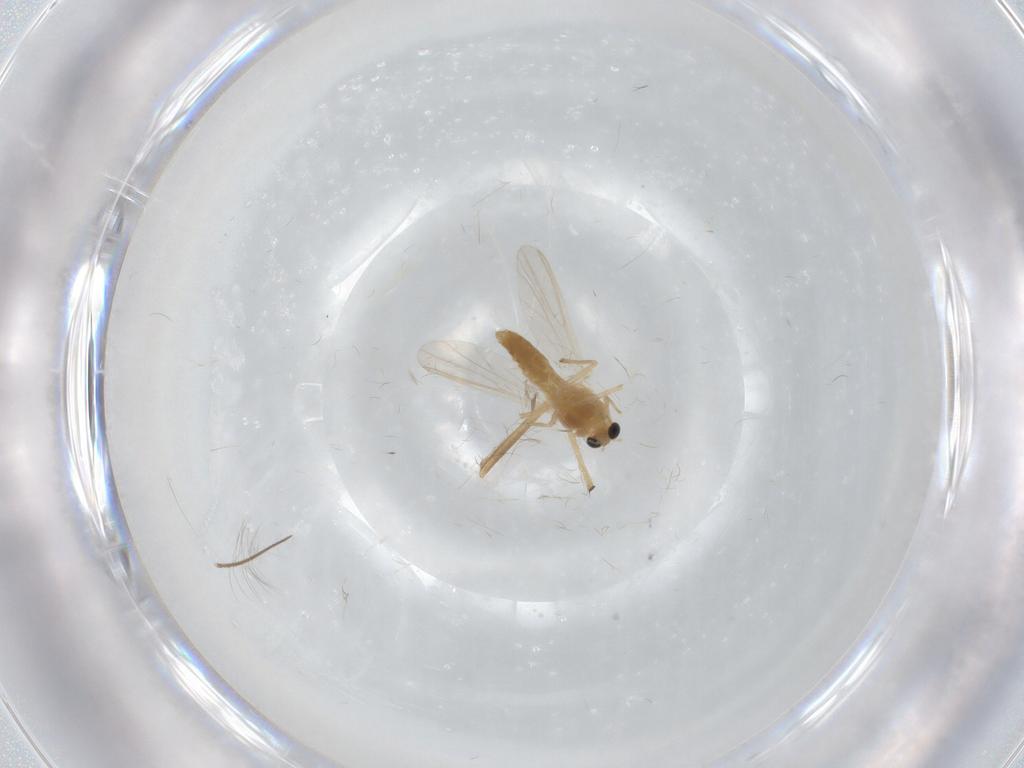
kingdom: Animalia
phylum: Arthropoda
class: Insecta
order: Diptera
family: Chironomidae
